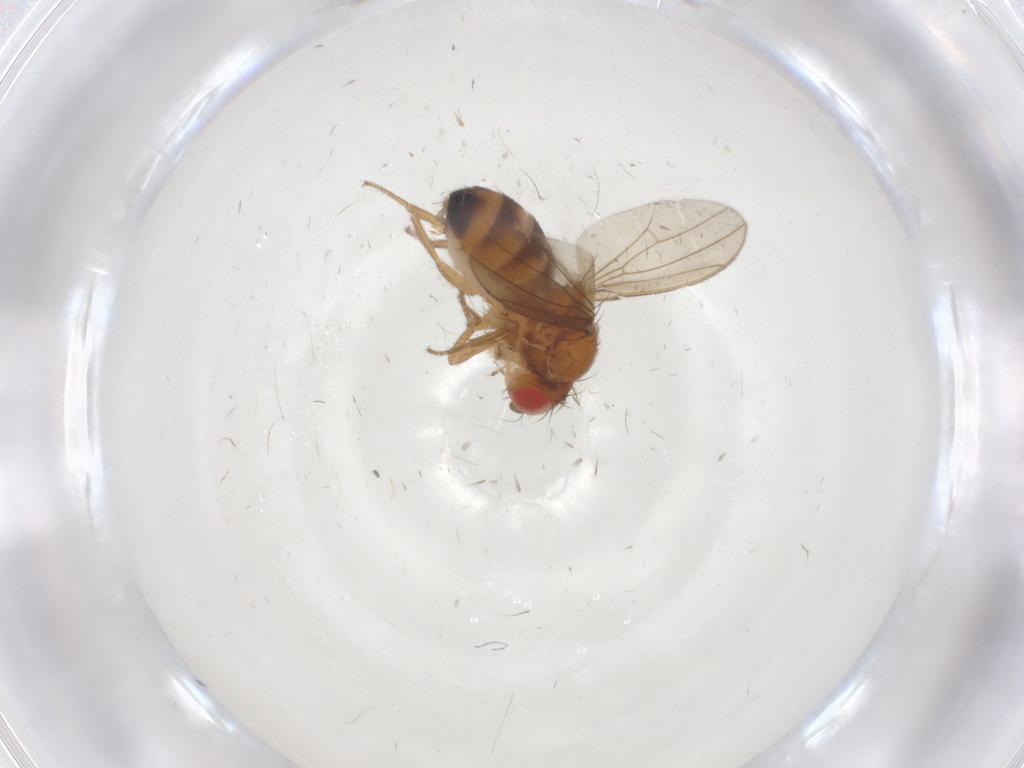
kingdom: Animalia
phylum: Arthropoda
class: Insecta
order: Diptera
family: Drosophilidae
